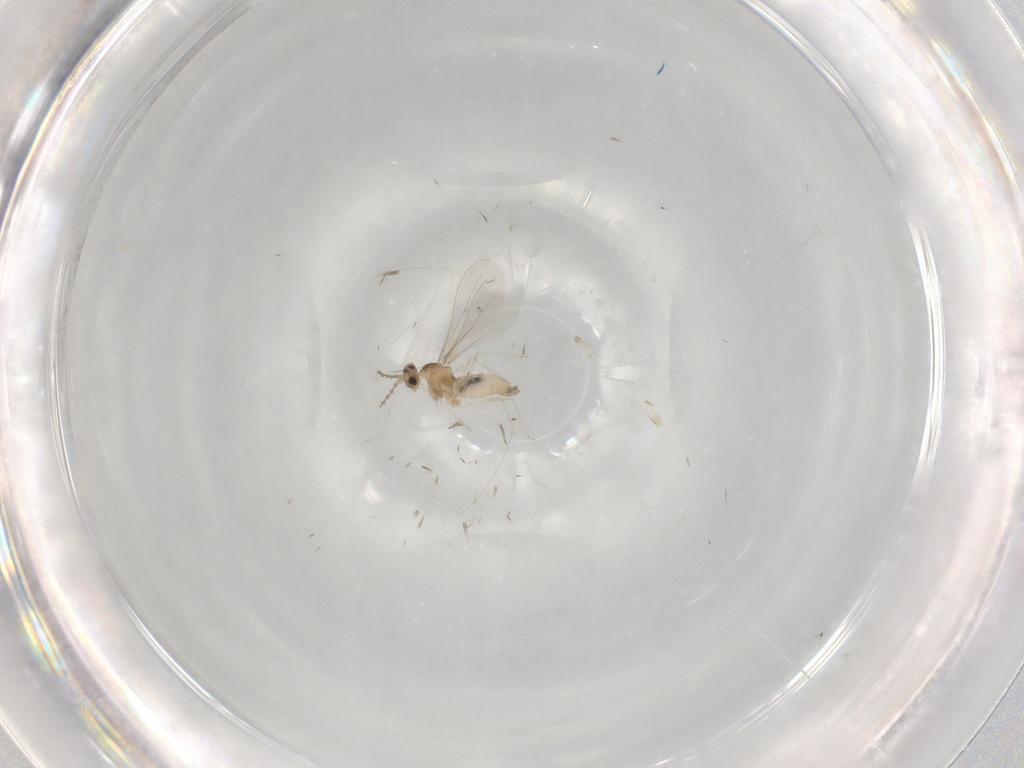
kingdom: Animalia
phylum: Arthropoda
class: Insecta
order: Diptera
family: Cecidomyiidae
